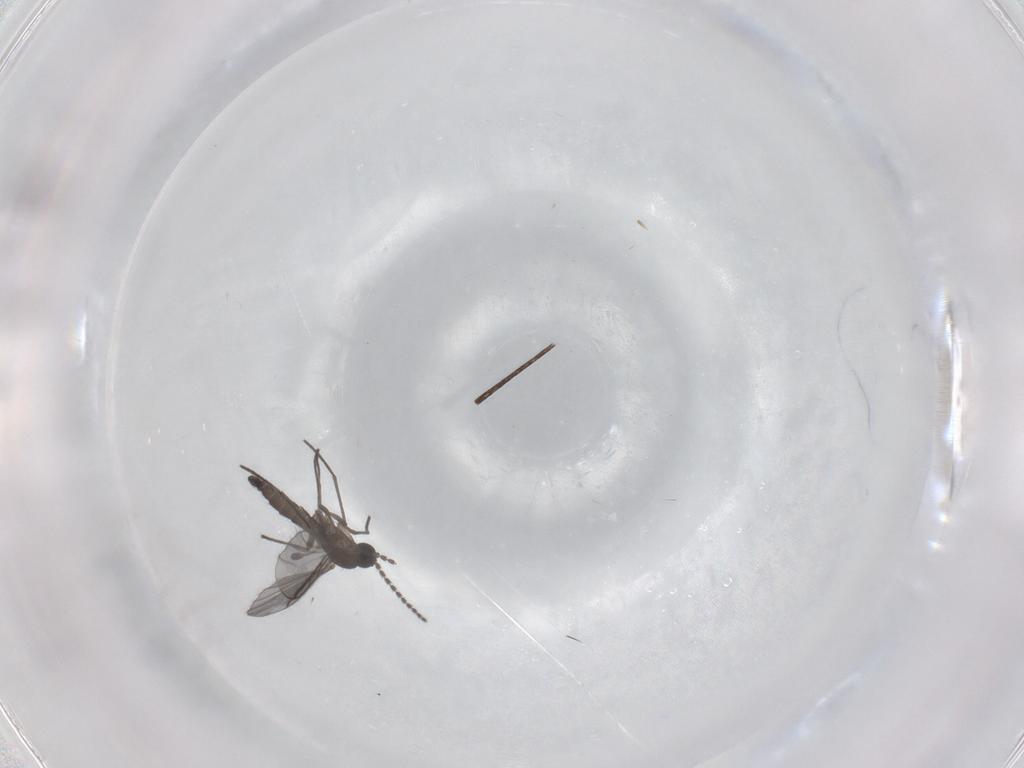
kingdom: Animalia
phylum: Arthropoda
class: Insecta
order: Diptera
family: Sciaridae
